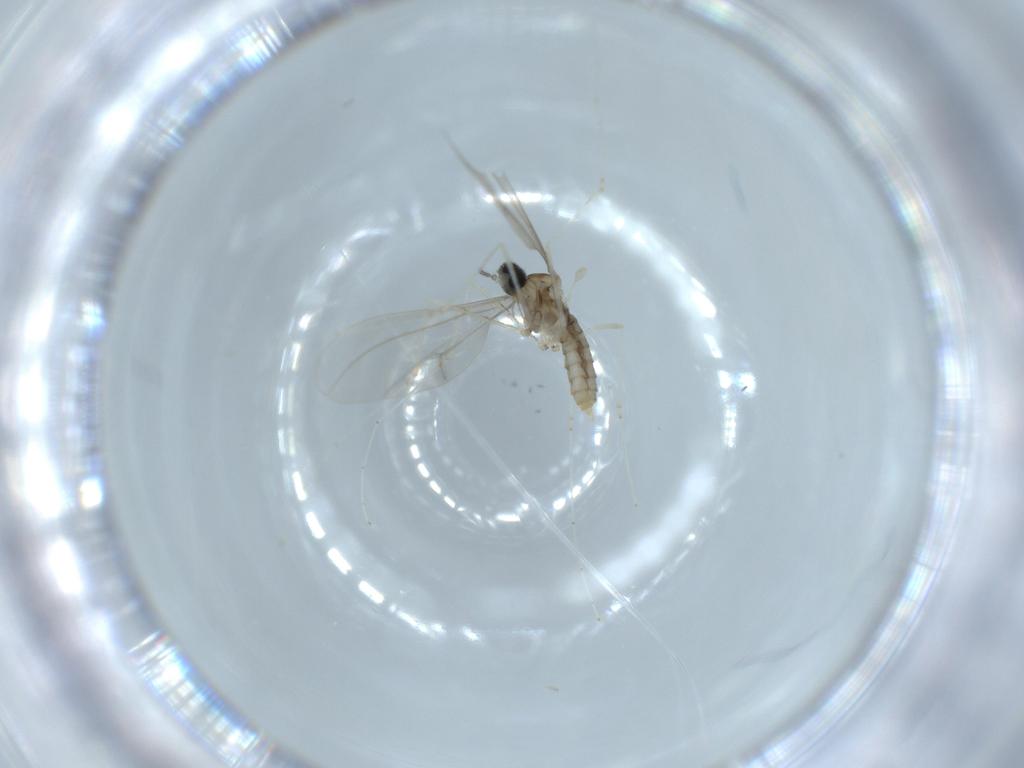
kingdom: Animalia
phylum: Arthropoda
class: Insecta
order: Diptera
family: Cecidomyiidae
